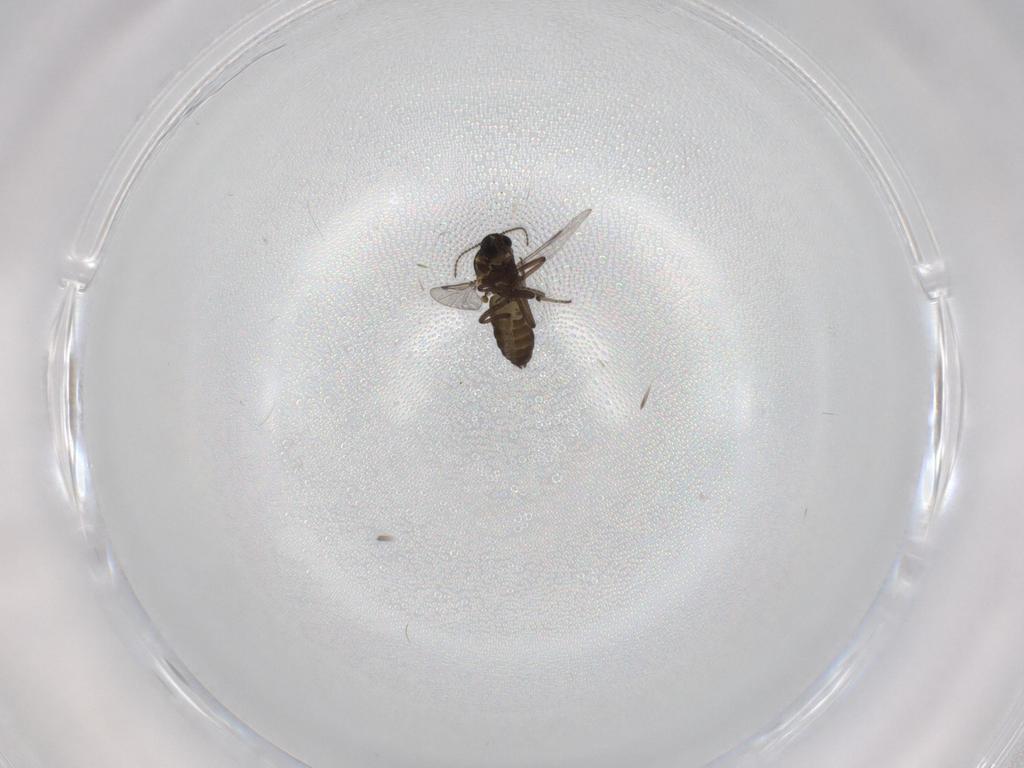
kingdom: Animalia
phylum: Arthropoda
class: Insecta
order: Diptera
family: Ceratopogonidae
